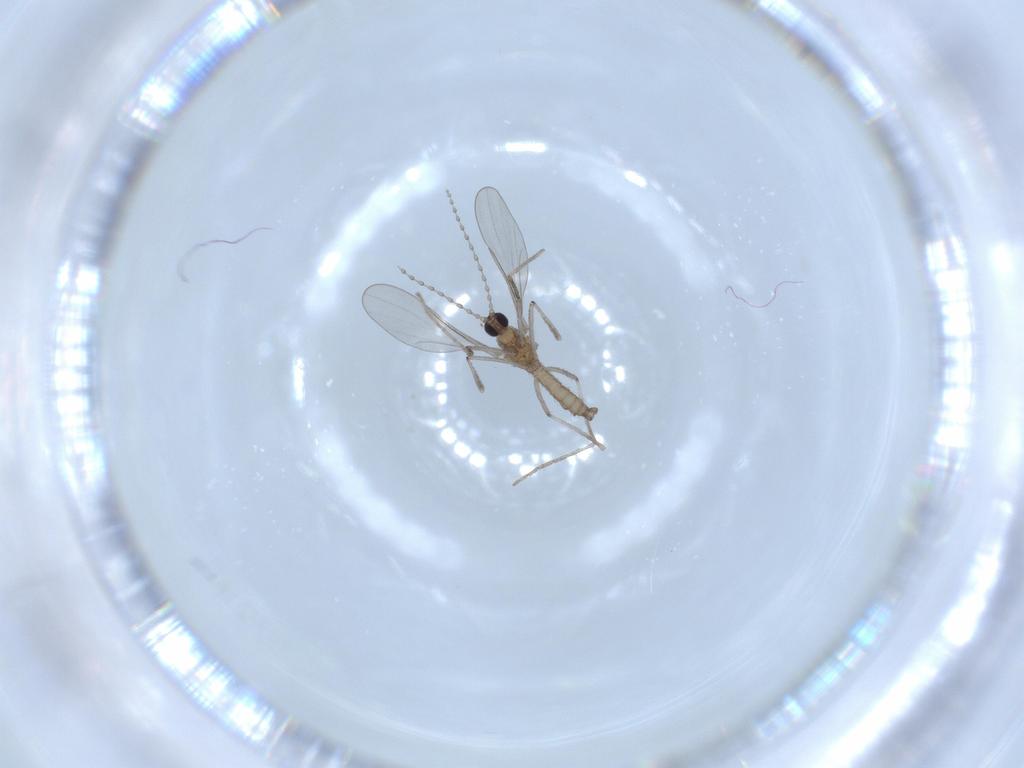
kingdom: Animalia
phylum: Arthropoda
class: Insecta
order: Diptera
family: Cecidomyiidae
